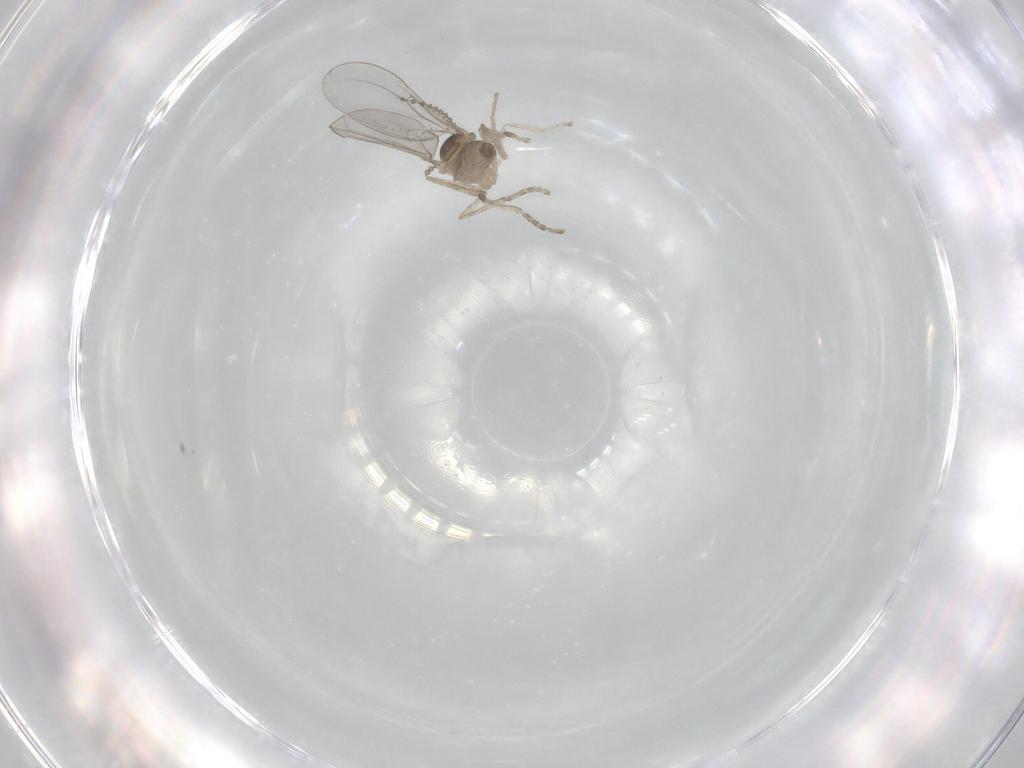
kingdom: Animalia
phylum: Arthropoda
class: Insecta
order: Diptera
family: Cecidomyiidae
